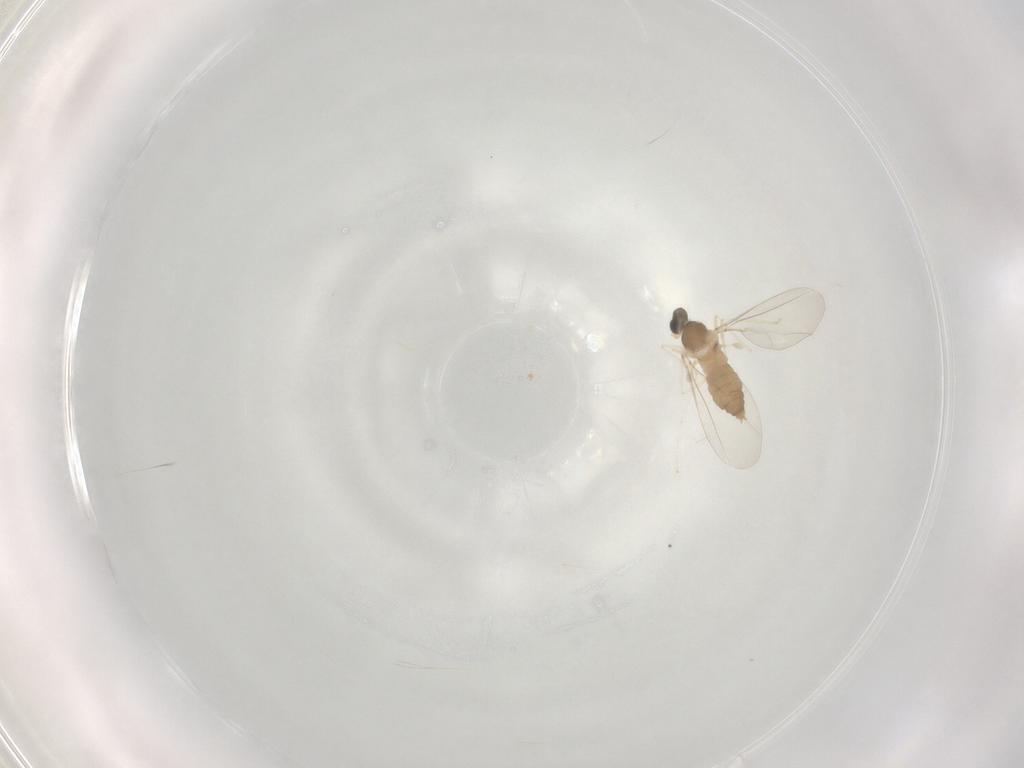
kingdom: Animalia
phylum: Arthropoda
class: Insecta
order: Diptera
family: Cecidomyiidae
